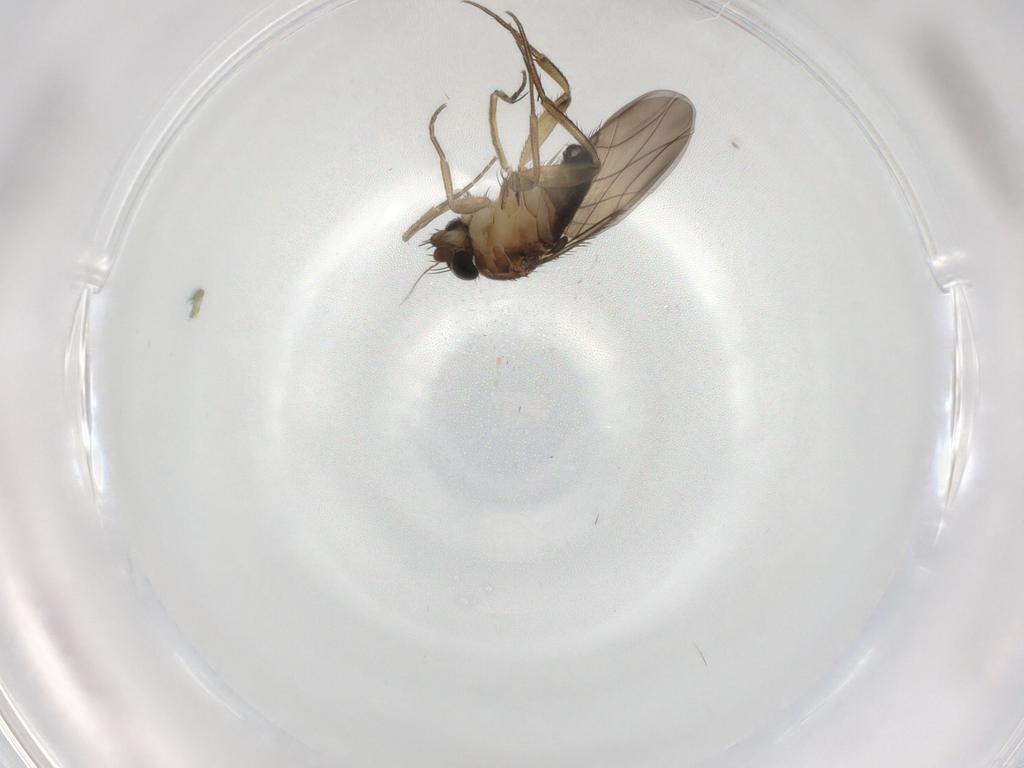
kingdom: Animalia
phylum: Arthropoda
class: Insecta
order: Diptera
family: Phoridae
